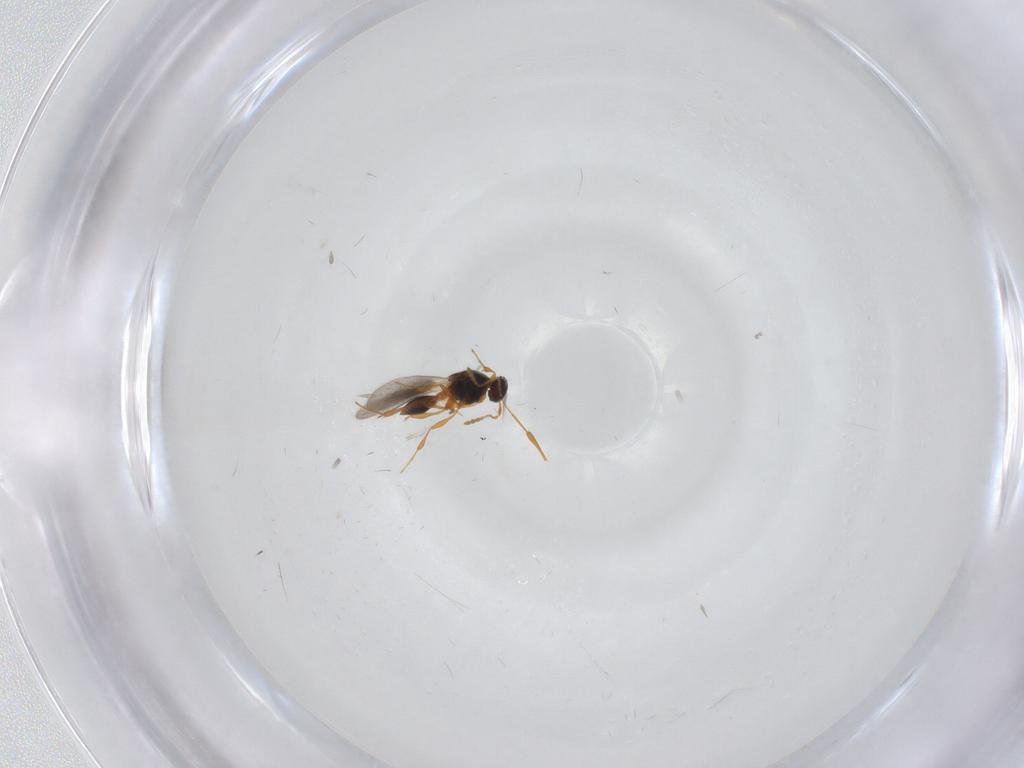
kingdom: Animalia
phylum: Arthropoda
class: Insecta
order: Hymenoptera
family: Platygastridae
